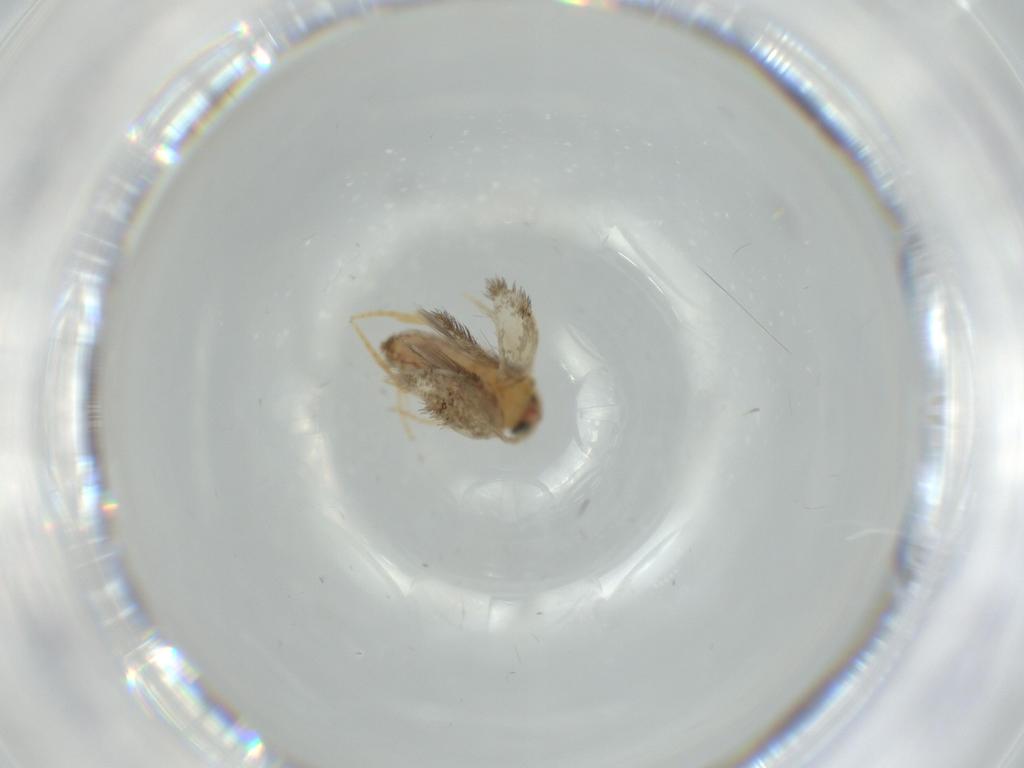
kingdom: Animalia
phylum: Arthropoda
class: Insecta
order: Lepidoptera
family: Nepticulidae
